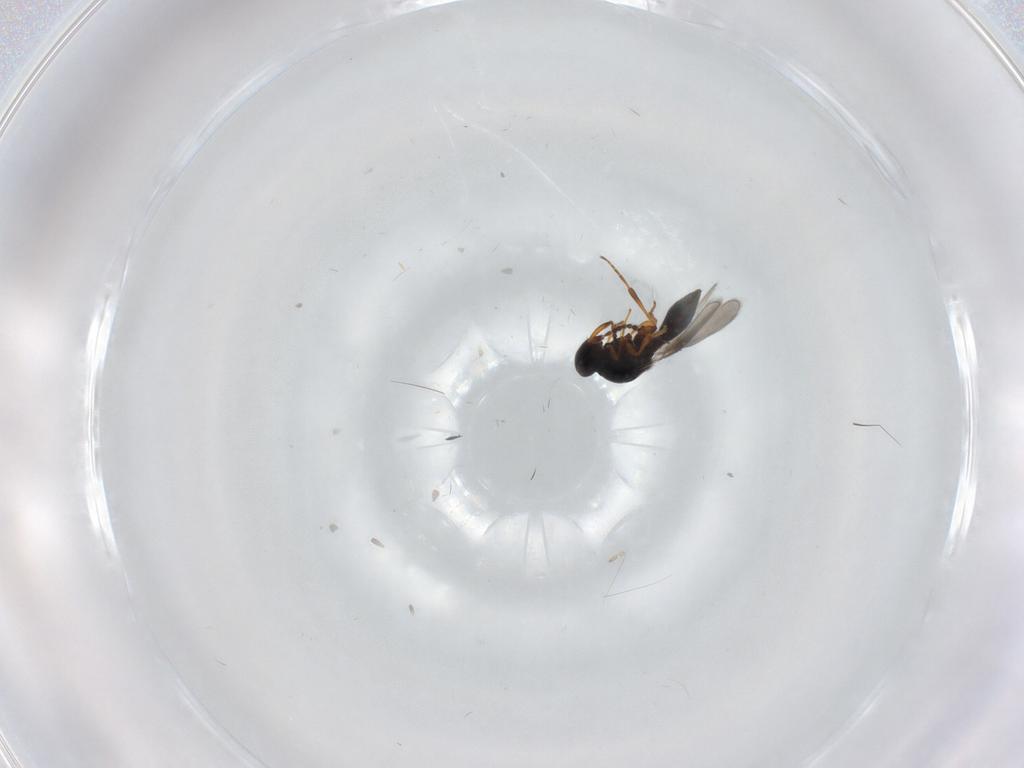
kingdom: Animalia
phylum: Arthropoda
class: Insecta
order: Hymenoptera
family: Platygastridae
